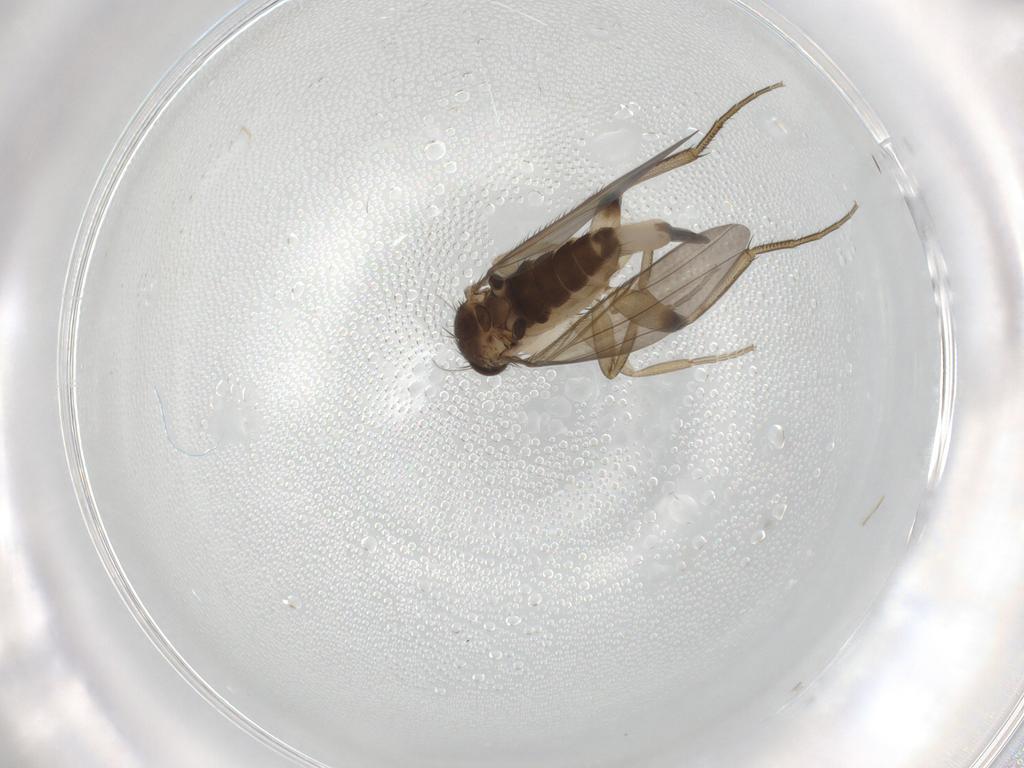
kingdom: Animalia
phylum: Arthropoda
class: Insecta
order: Diptera
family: Phoridae
